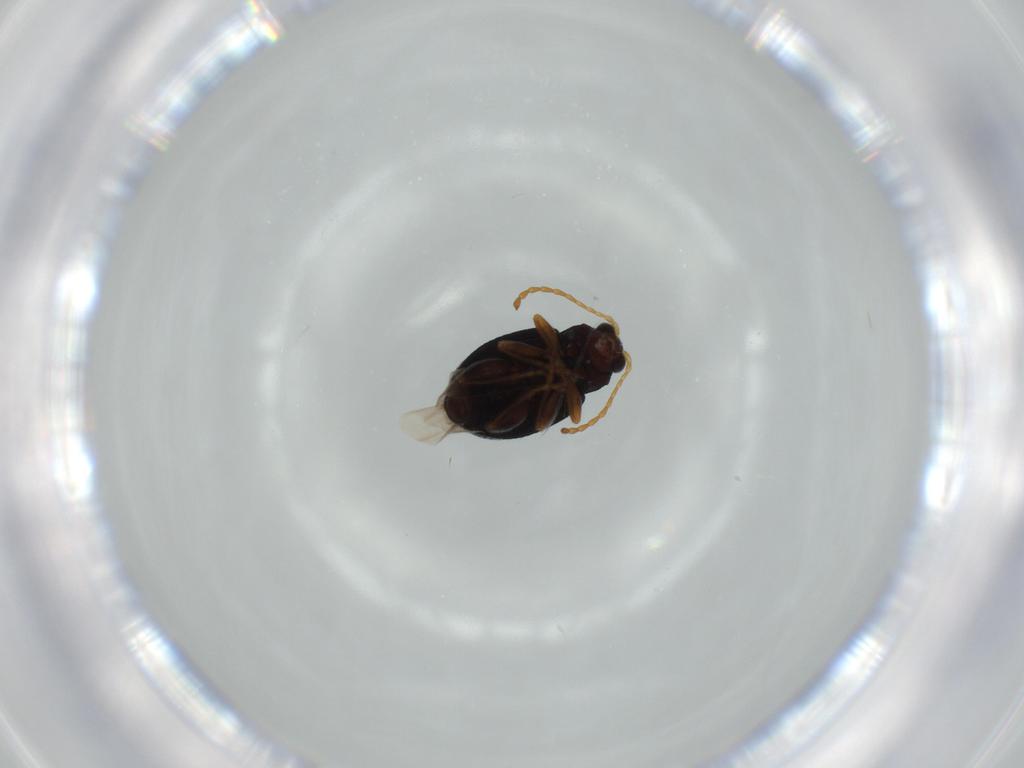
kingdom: Animalia
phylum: Arthropoda
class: Insecta
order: Coleoptera
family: Chrysomelidae
